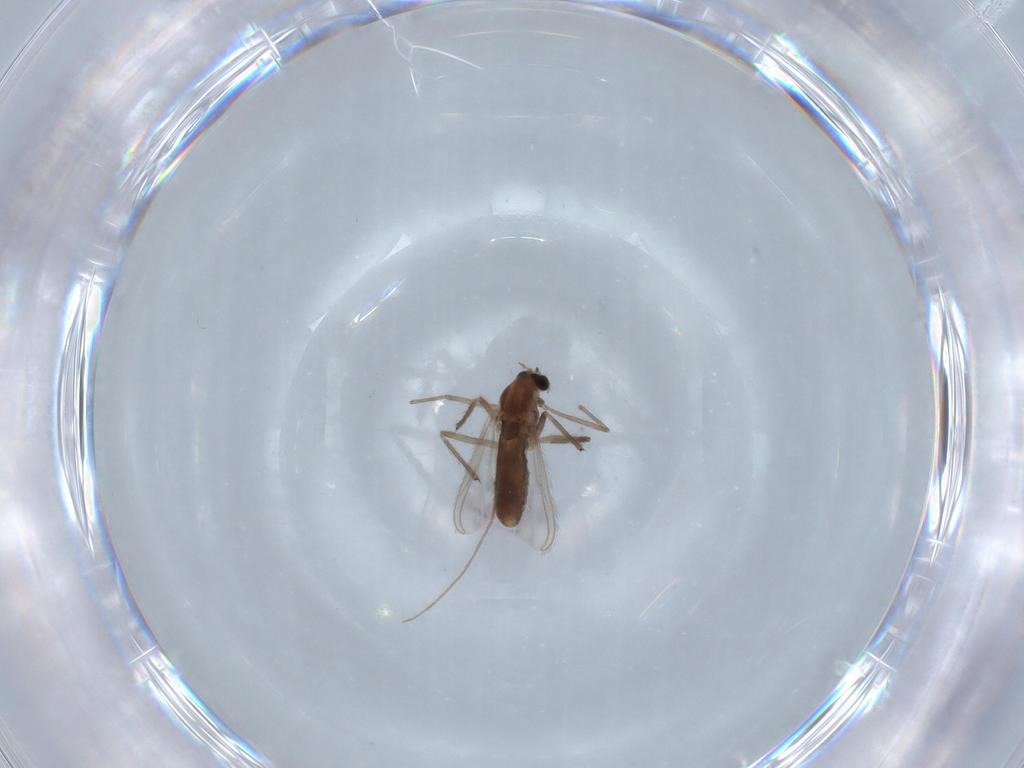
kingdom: Animalia
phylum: Arthropoda
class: Insecta
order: Diptera
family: Chironomidae
